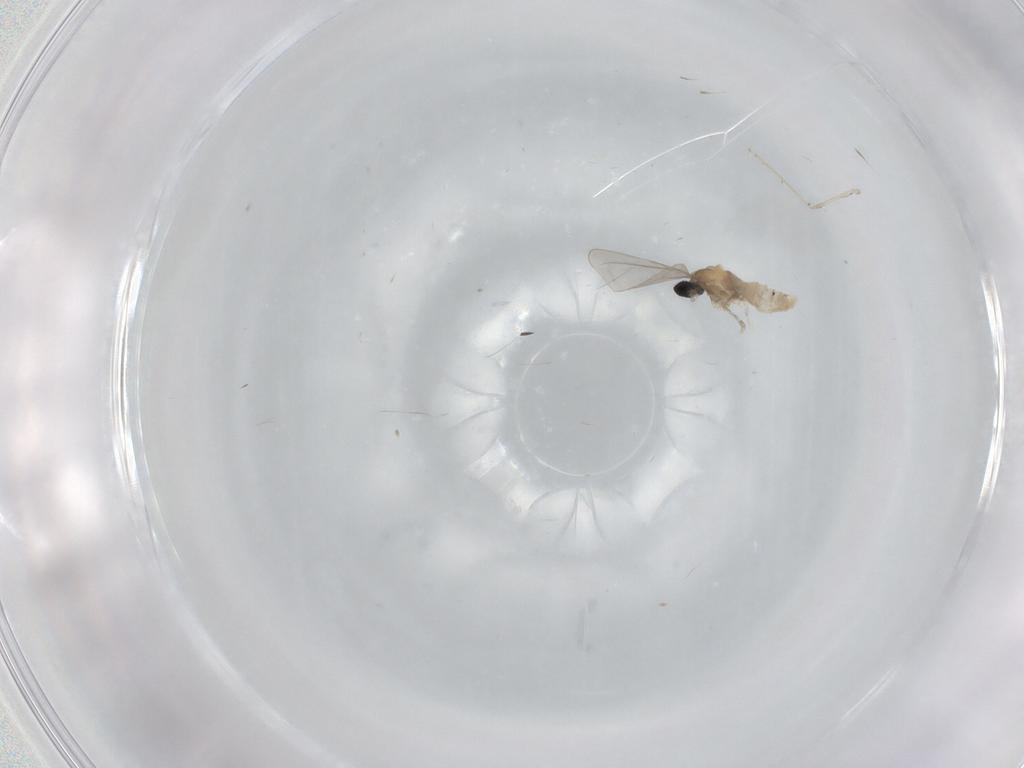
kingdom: Animalia
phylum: Arthropoda
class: Insecta
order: Diptera
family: Cecidomyiidae
